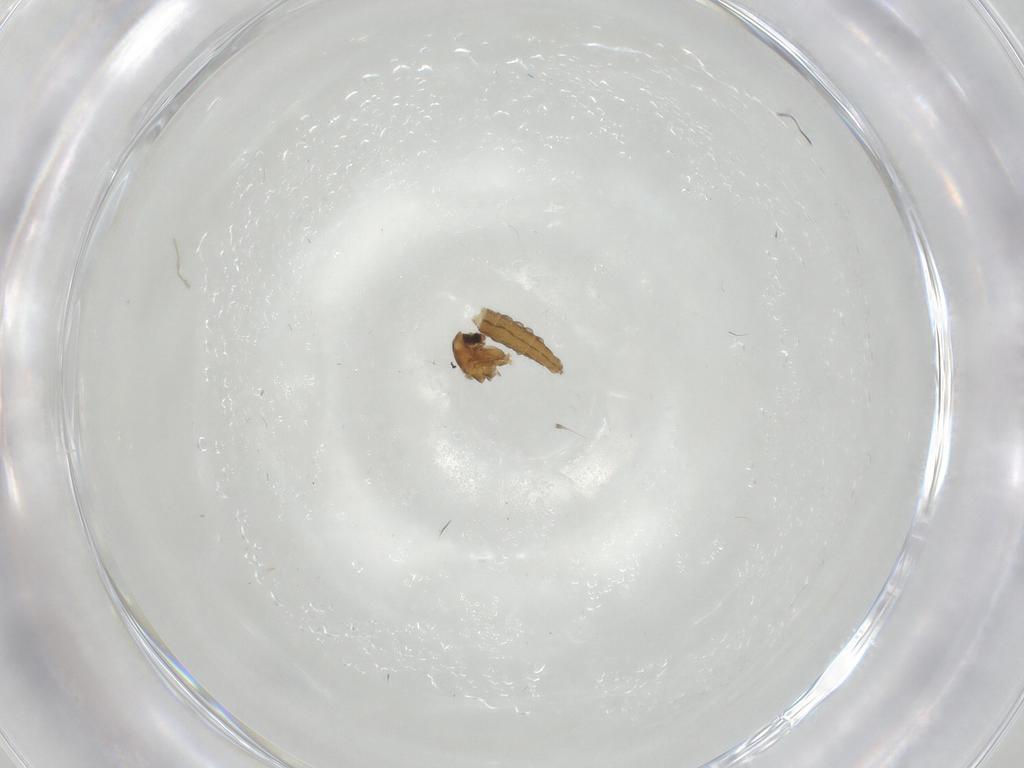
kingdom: Animalia
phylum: Arthropoda
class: Insecta
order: Diptera
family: Chironomidae
